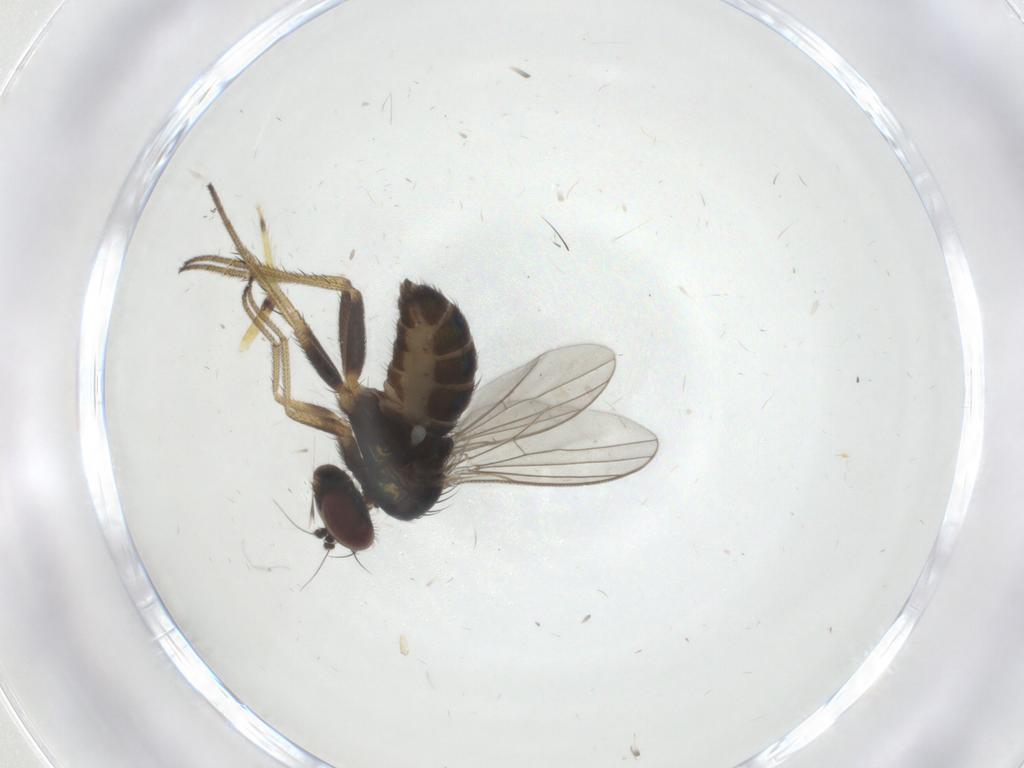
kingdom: Animalia
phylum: Arthropoda
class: Insecta
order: Diptera
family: Dolichopodidae
